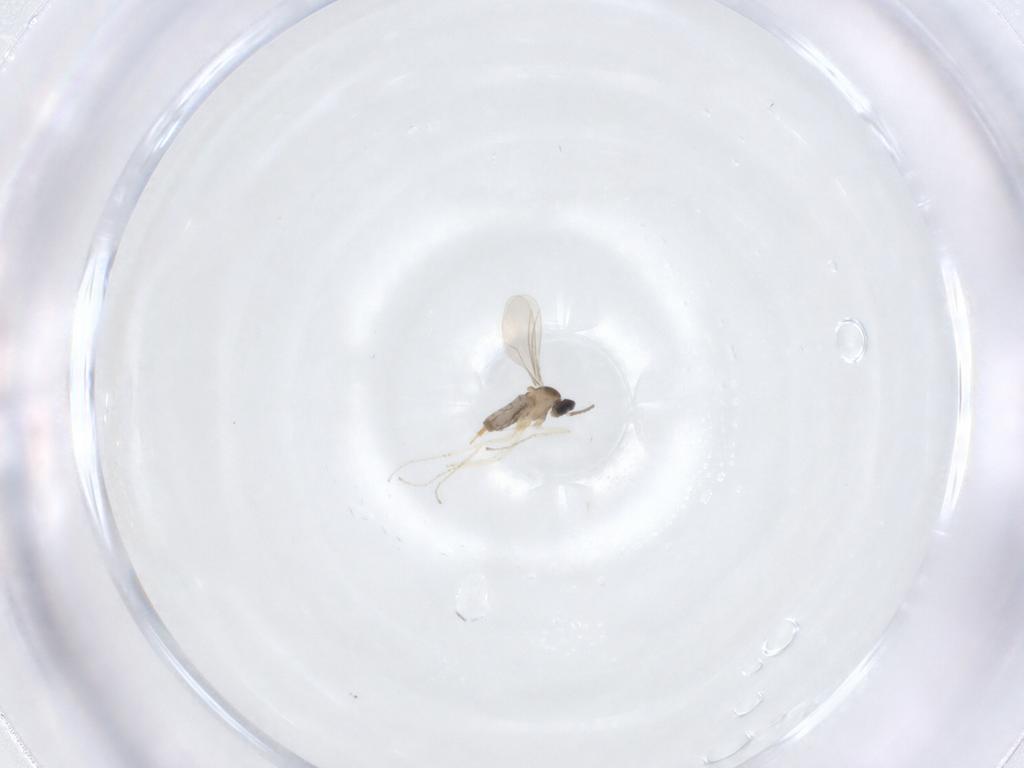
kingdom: Animalia
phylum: Arthropoda
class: Insecta
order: Diptera
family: Cecidomyiidae
